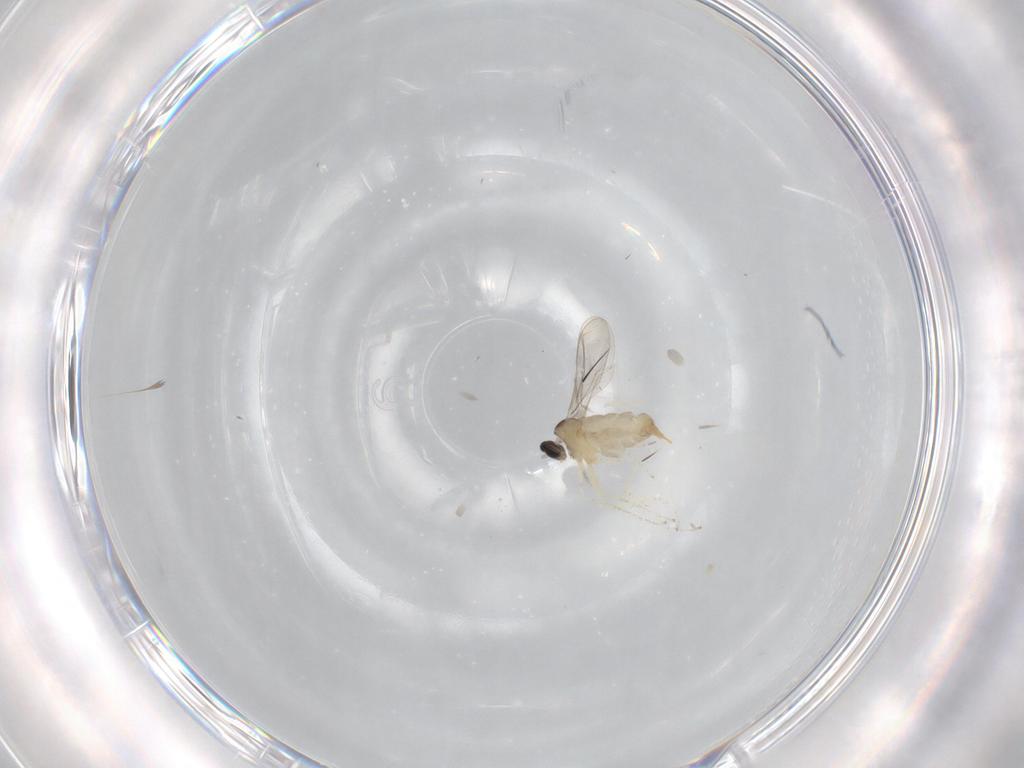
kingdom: Animalia
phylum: Arthropoda
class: Insecta
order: Diptera
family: Cecidomyiidae
